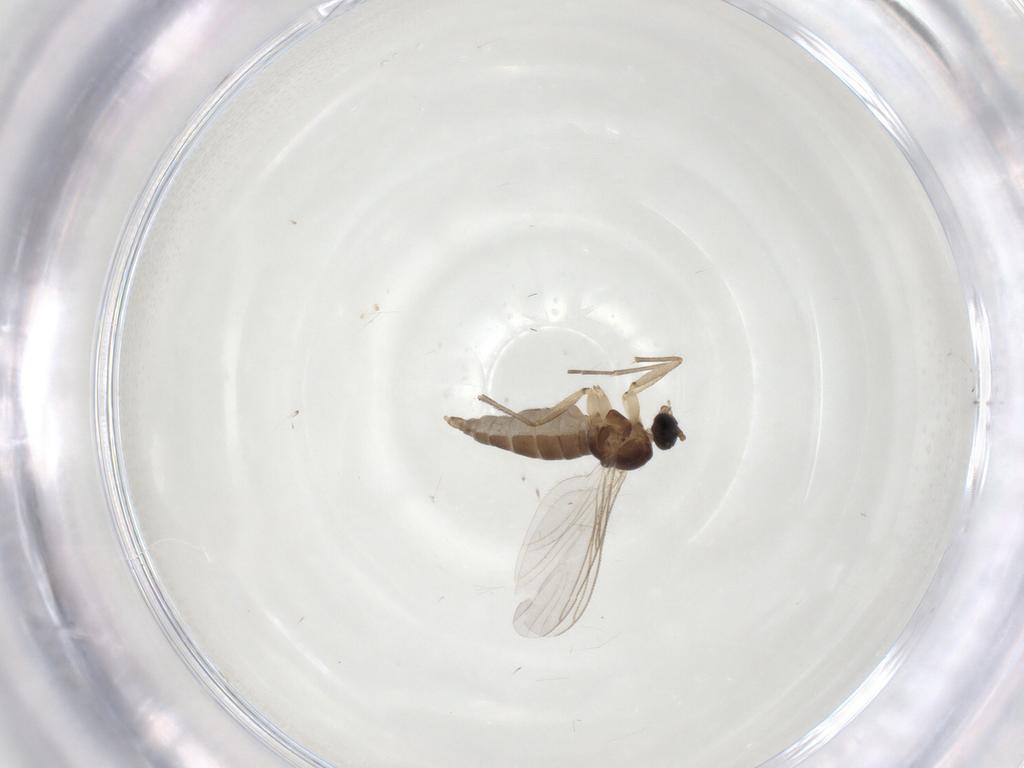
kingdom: Animalia
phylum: Arthropoda
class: Insecta
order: Diptera
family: Sciaridae
